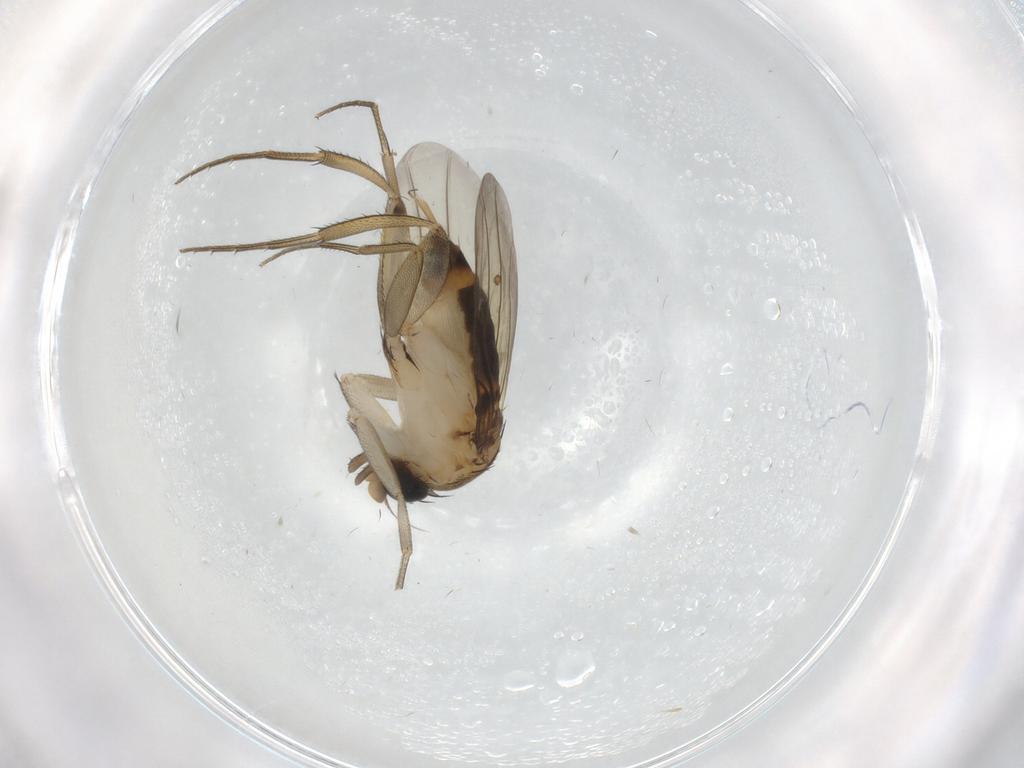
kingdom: Animalia
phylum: Arthropoda
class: Insecta
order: Diptera
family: Phoridae
